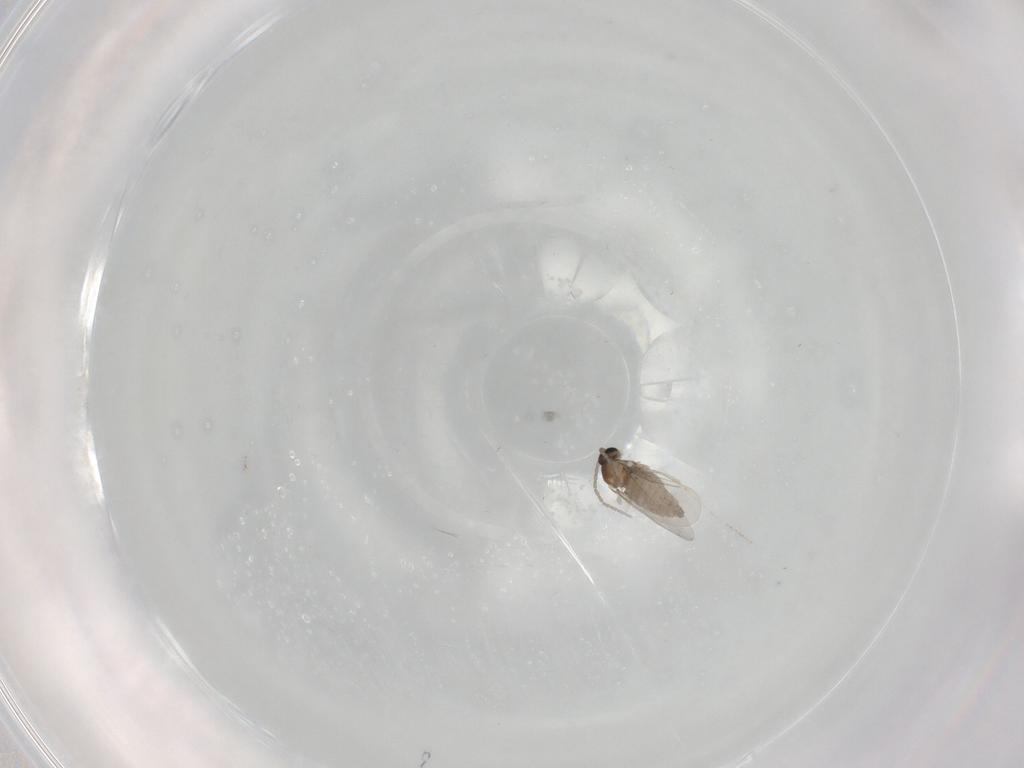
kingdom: Animalia
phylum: Arthropoda
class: Insecta
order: Diptera
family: Cecidomyiidae
